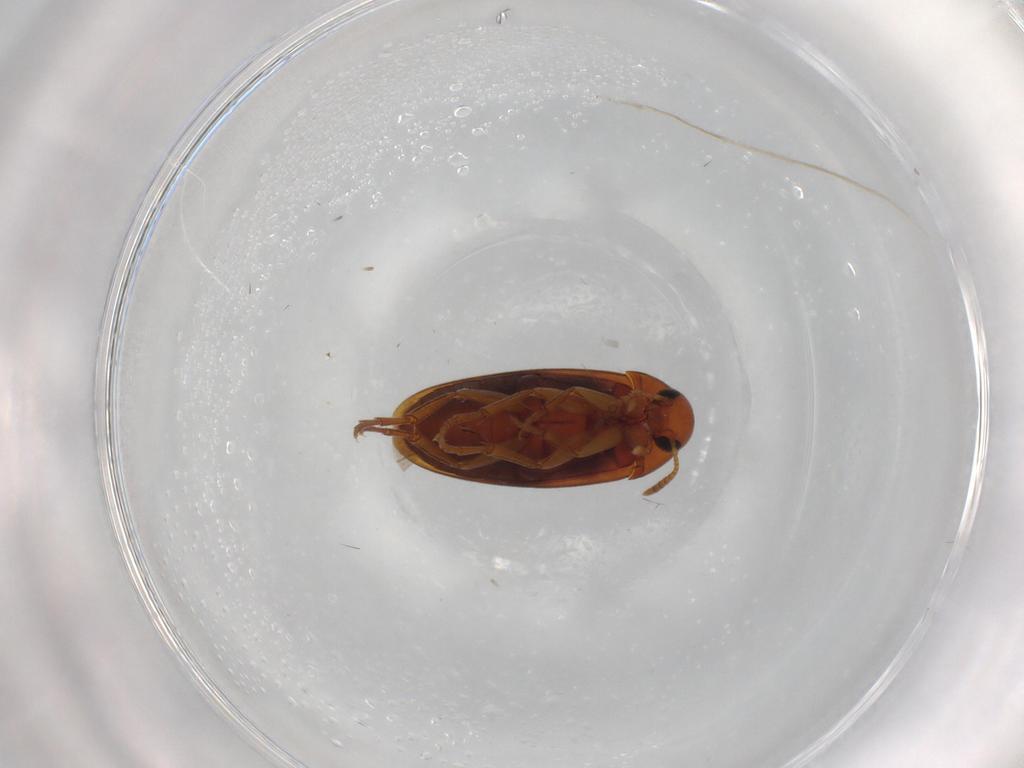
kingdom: Animalia
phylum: Arthropoda
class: Insecta
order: Coleoptera
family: Scraptiidae
